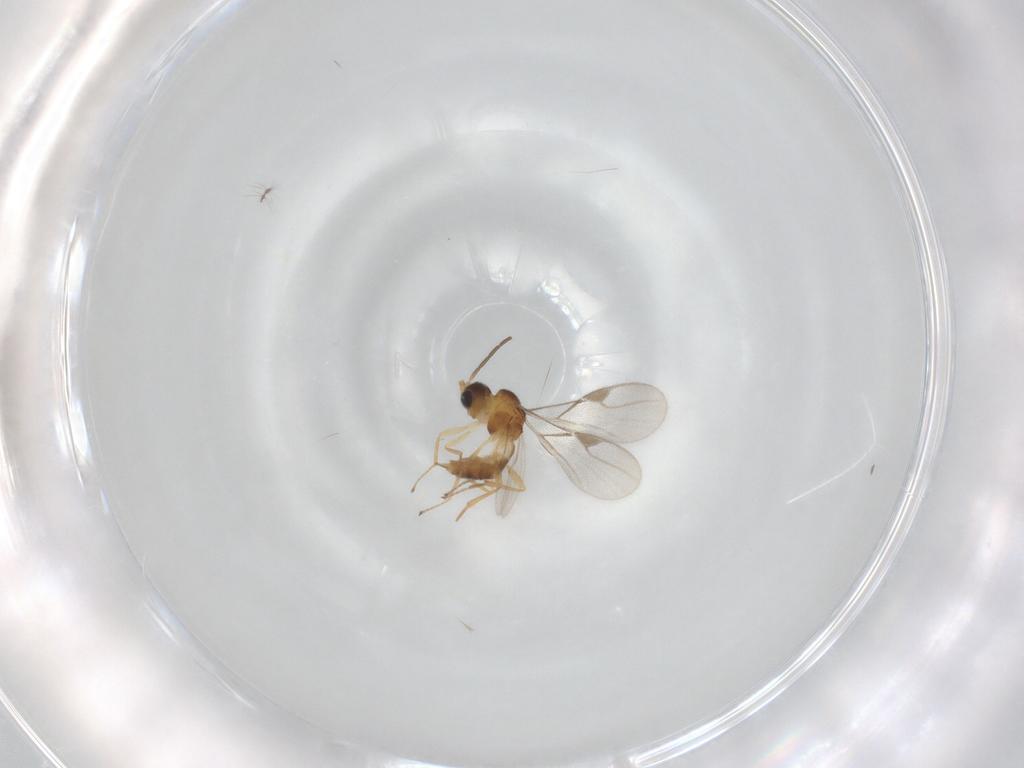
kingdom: Animalia
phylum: Arthropoda
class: Insecta
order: Hymenoptera
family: Braconidae
